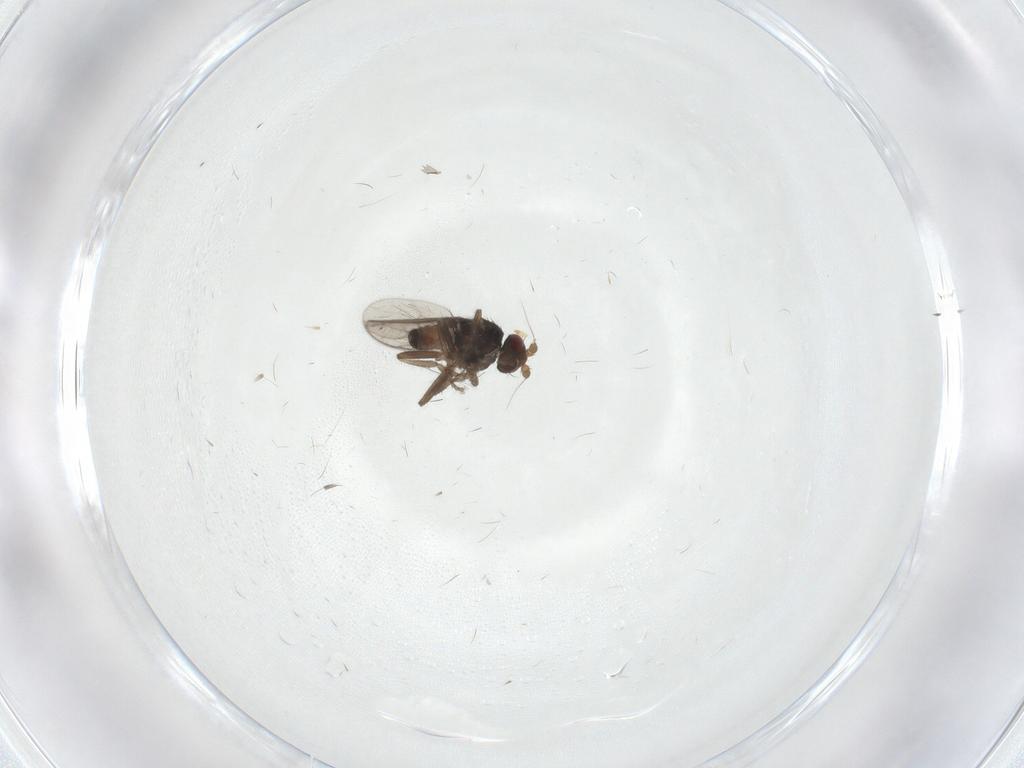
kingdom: Animalia
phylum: Arthropoda
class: Insecta
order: Diptera
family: Sphaeroceridae
